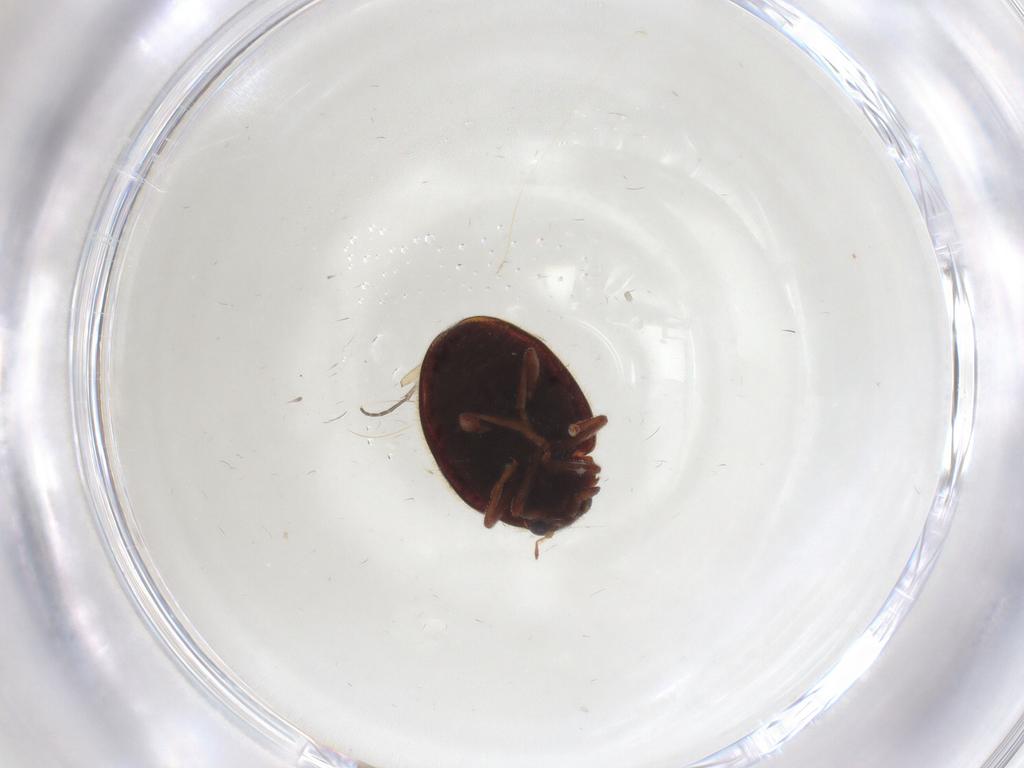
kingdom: Animalia
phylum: Arthropoda
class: Insecta
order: Coleoptera
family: Coccinellidae
